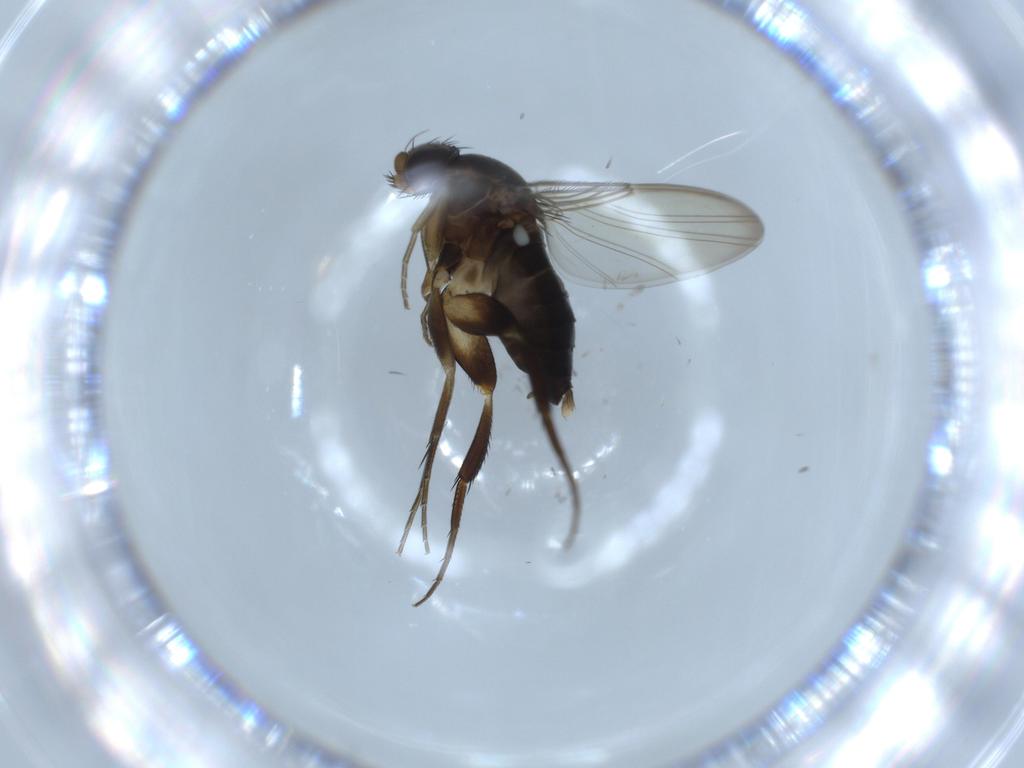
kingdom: Animalia
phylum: Arthropoda
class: Insecta
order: Diptera
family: Phoridae
